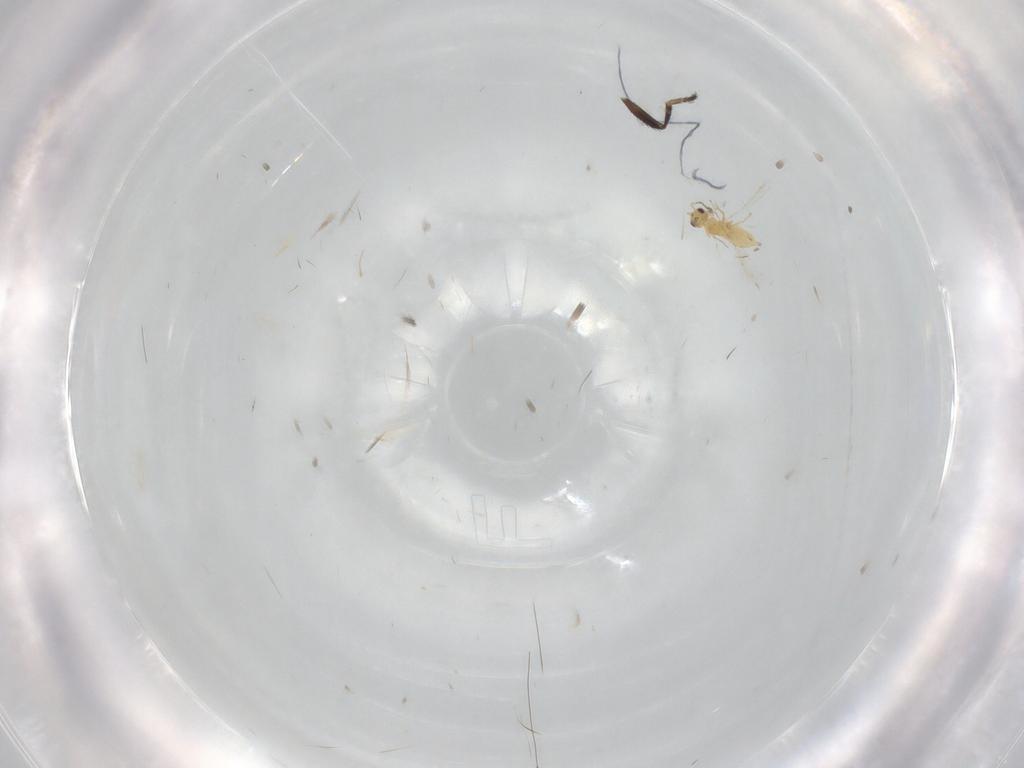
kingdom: Animalia
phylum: Arthropoda
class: Insecta
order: Hymenoptera
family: Mymaridae
